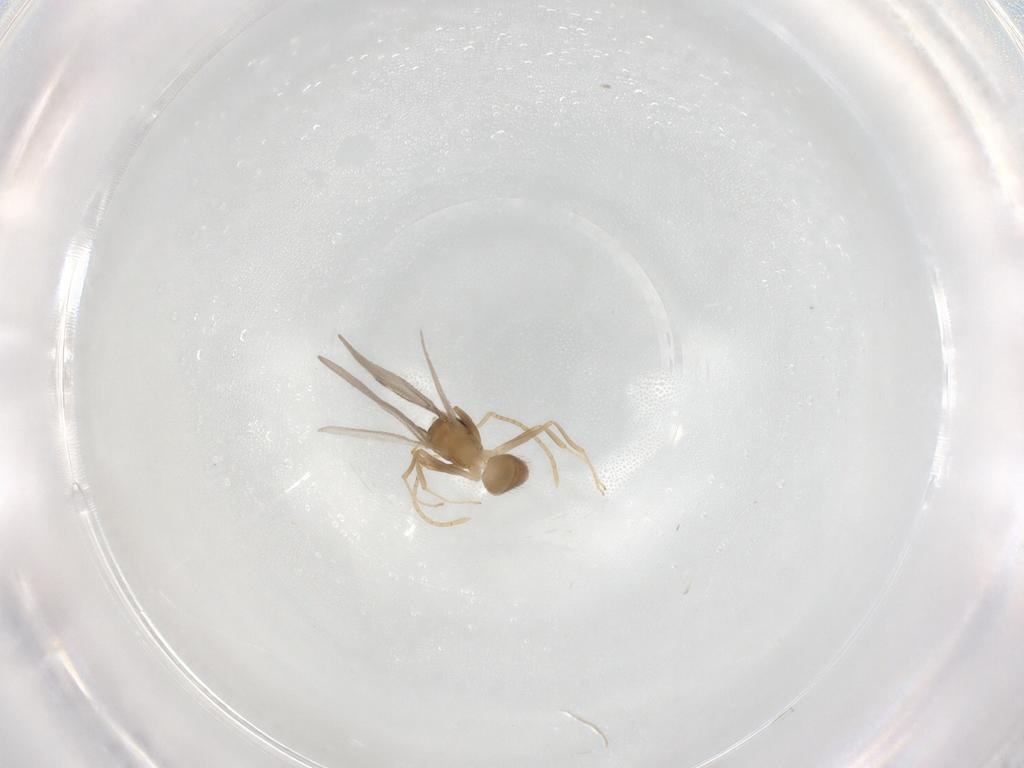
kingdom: Animalia
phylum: Arthropoda
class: Insecta
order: Hymenoptera
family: Formicidae
